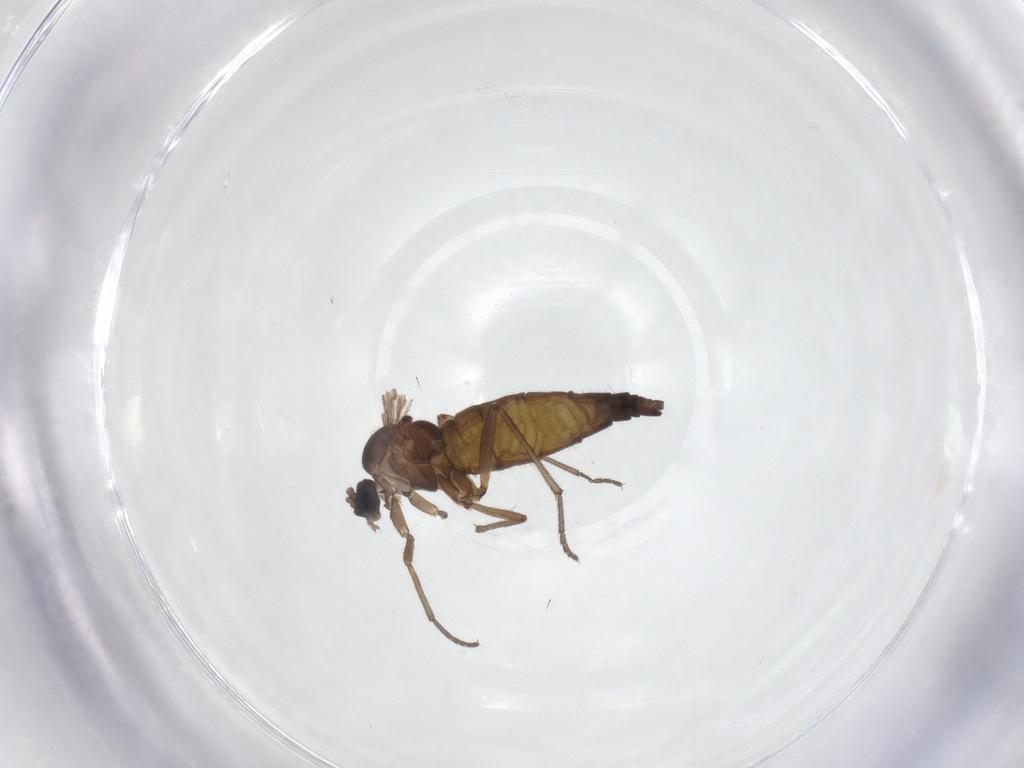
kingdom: Animalia
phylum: Arthropoda
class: Insecta
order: Diptera
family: Sciaridae
